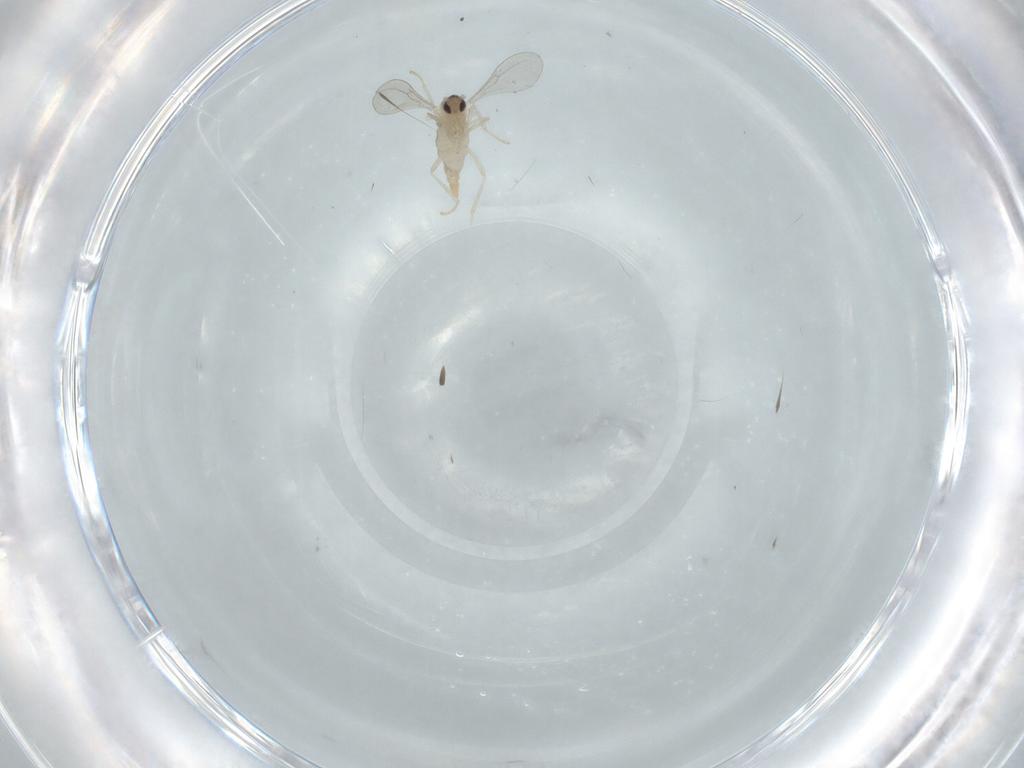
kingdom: Animalia
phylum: Arthropoda
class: Insecta
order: Diptera
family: Cecidomyiidae
